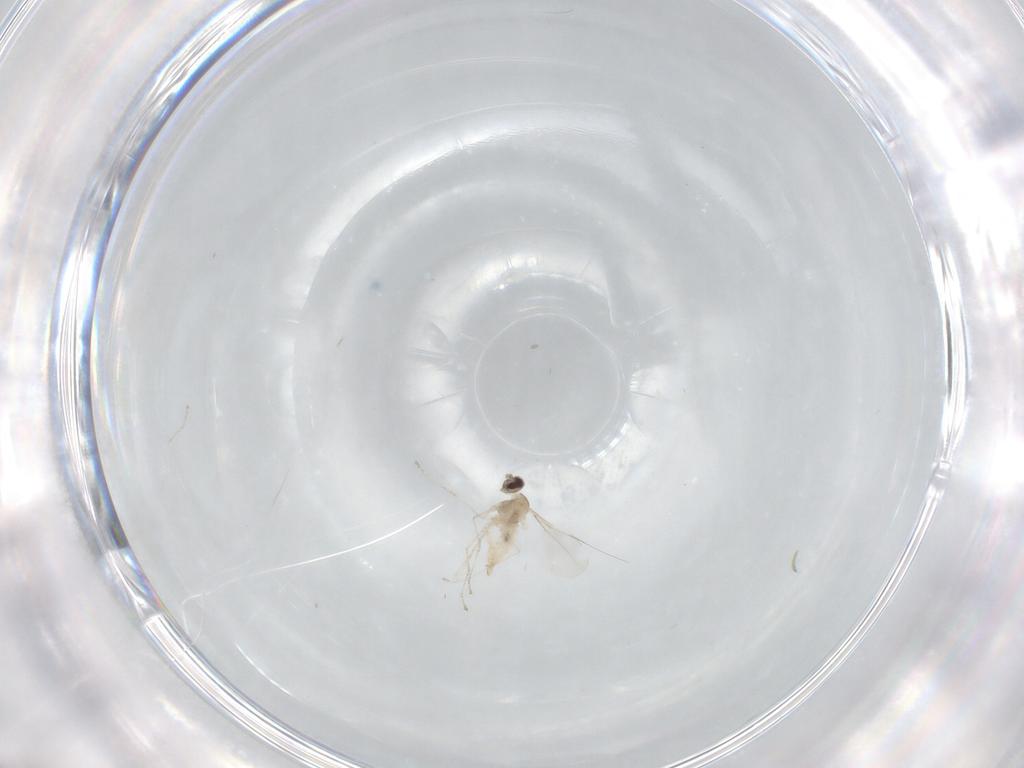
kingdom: Animalia
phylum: Arthropoda
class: Insecta
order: Diptera
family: Cecidomyiidae
